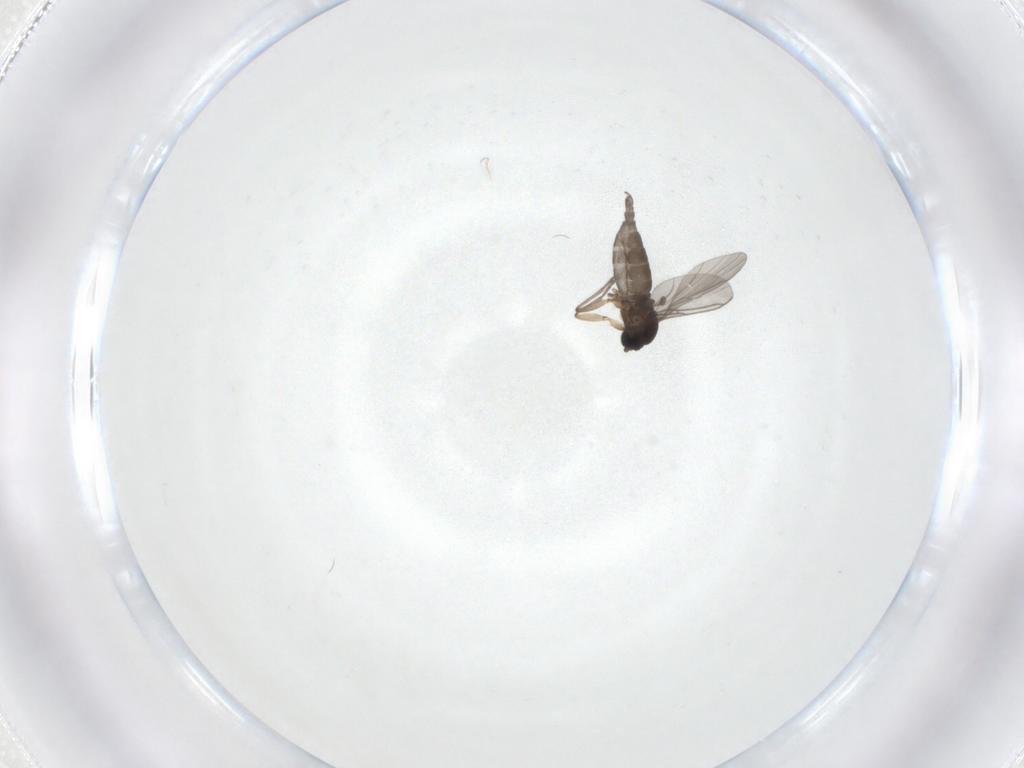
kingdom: Animalia
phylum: Arthropoda
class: Insecta
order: Diptera
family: Sciaridae
